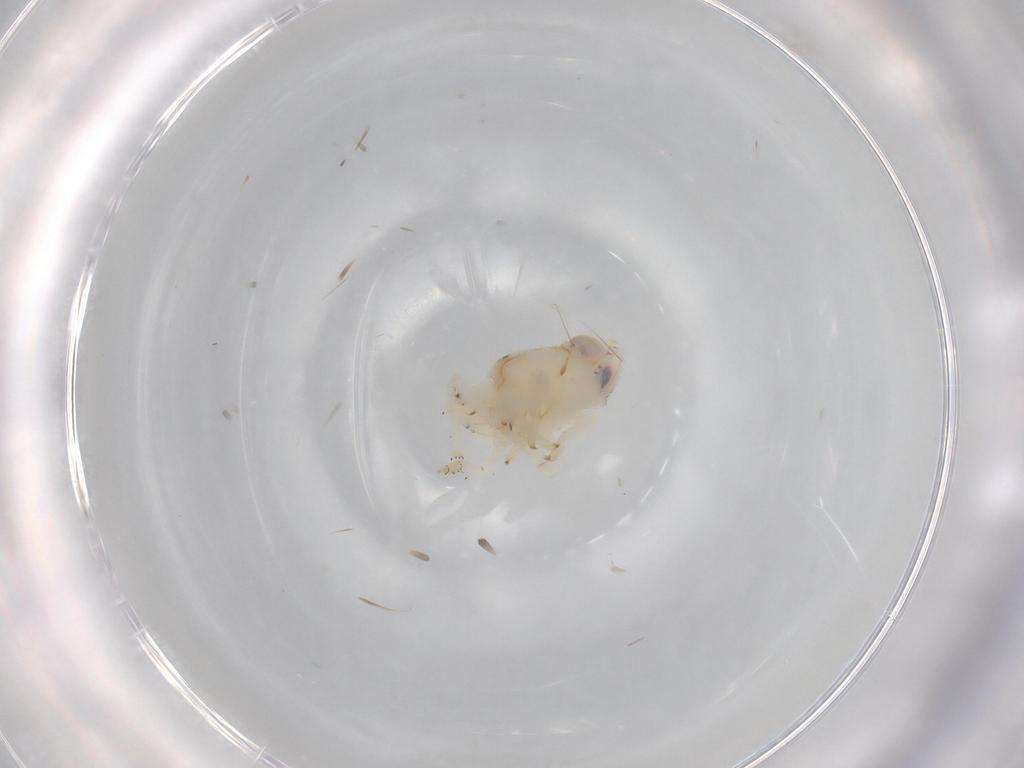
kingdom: Animalia
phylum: Arthropoda
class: Insecta
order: Hemiptera
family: Nogodinidae
